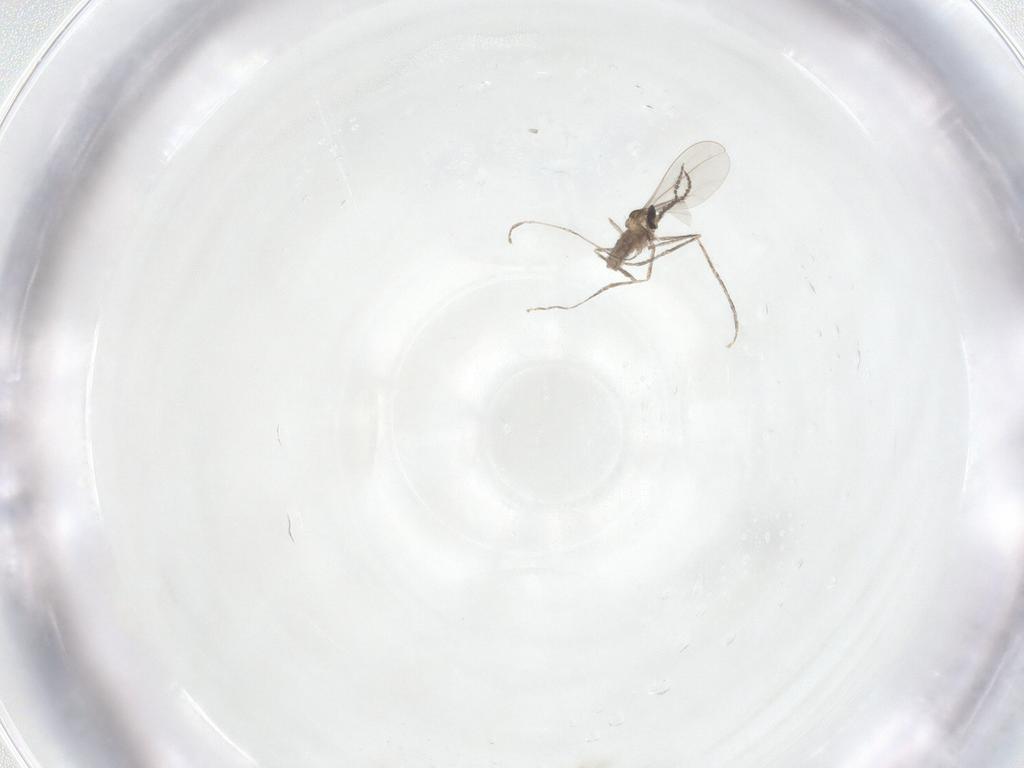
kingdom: Animalia
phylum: Arthropoda
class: Insecta
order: Diptera
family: Cecidomyiidae
